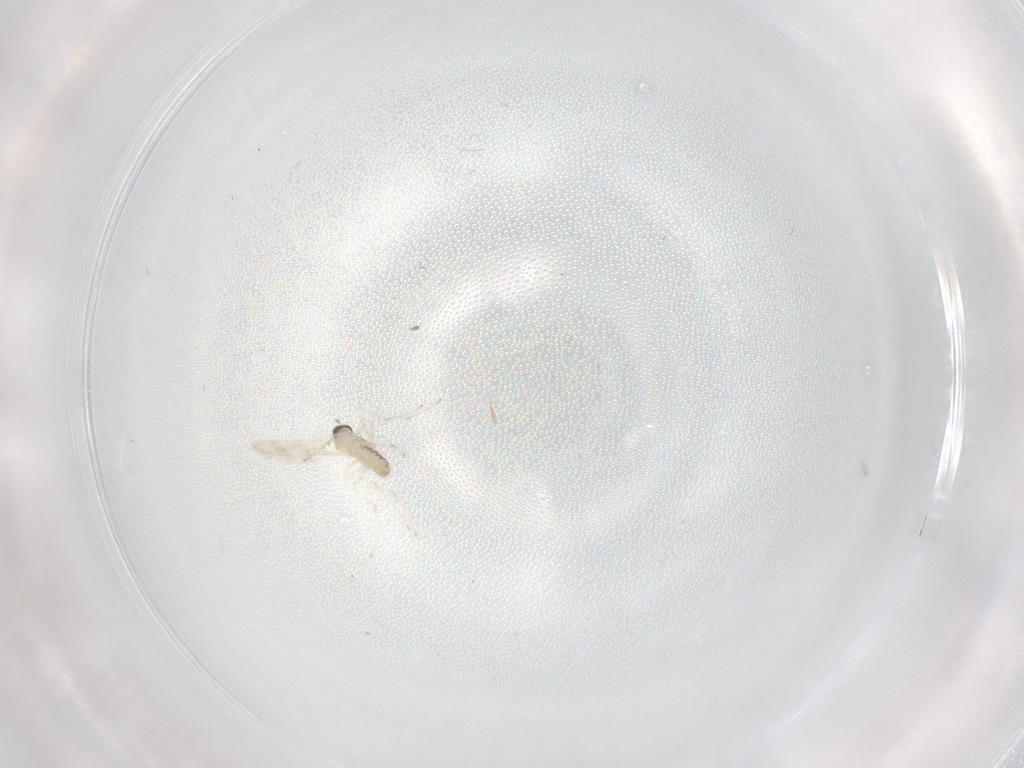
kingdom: Animalia
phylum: Arthropoda
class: Insecta
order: Diptera
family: Cecidomyiidae
